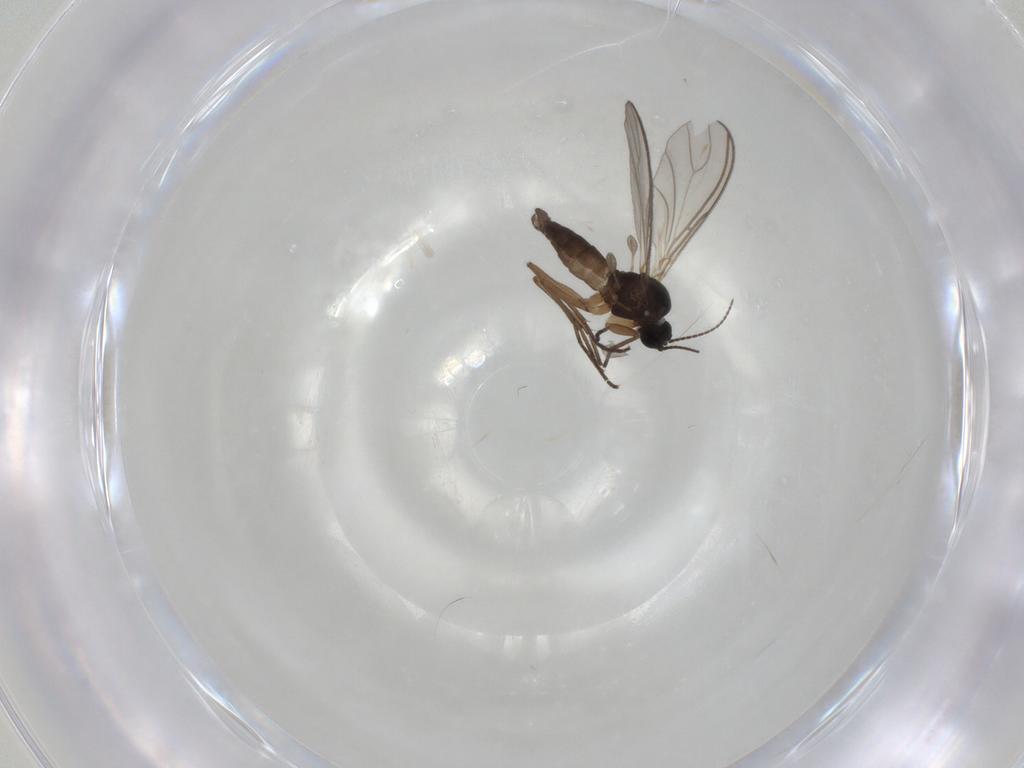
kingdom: Animalia
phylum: Arthropoda
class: Insecta
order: Diptera
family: Sciaridae
